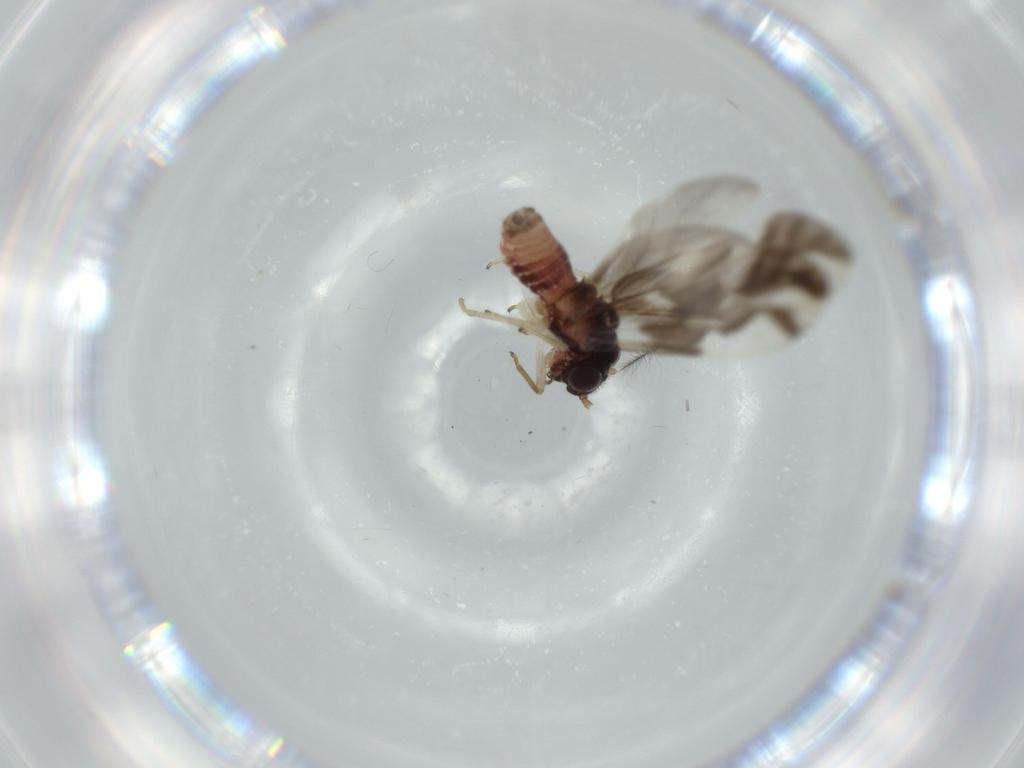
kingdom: Animalia
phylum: Arthropoda
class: Insecta
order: Psocodea
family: Caeciliusidae
